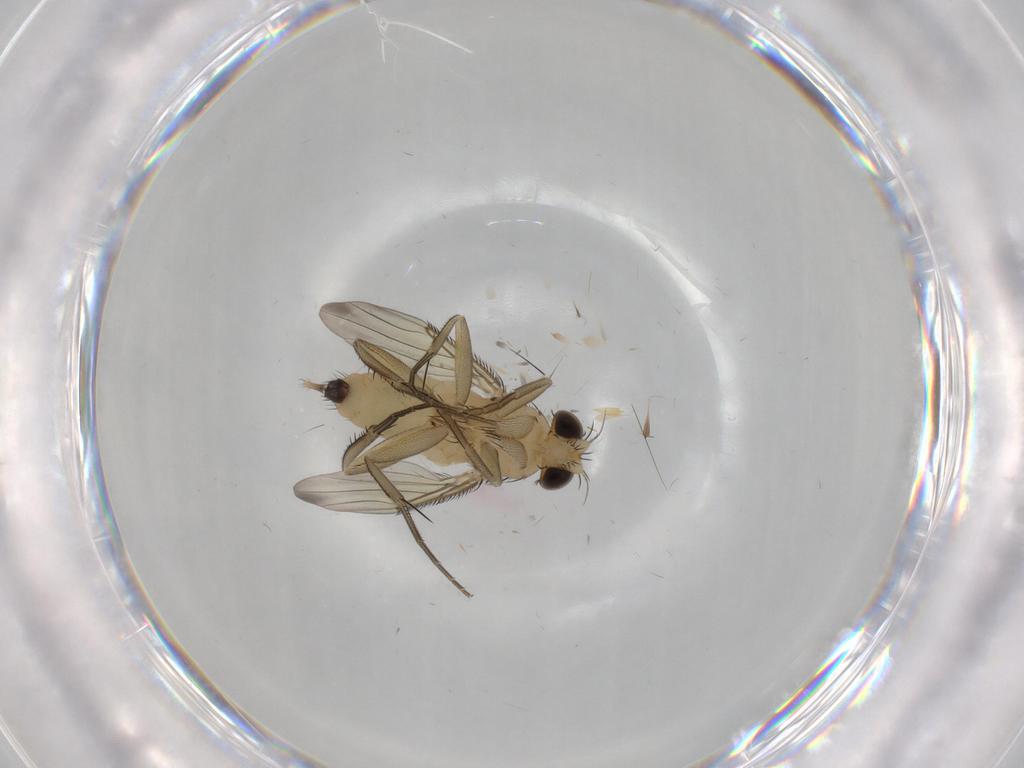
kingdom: Animalia
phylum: Arthropoda
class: Insecta
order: Diptera
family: Phoridae
